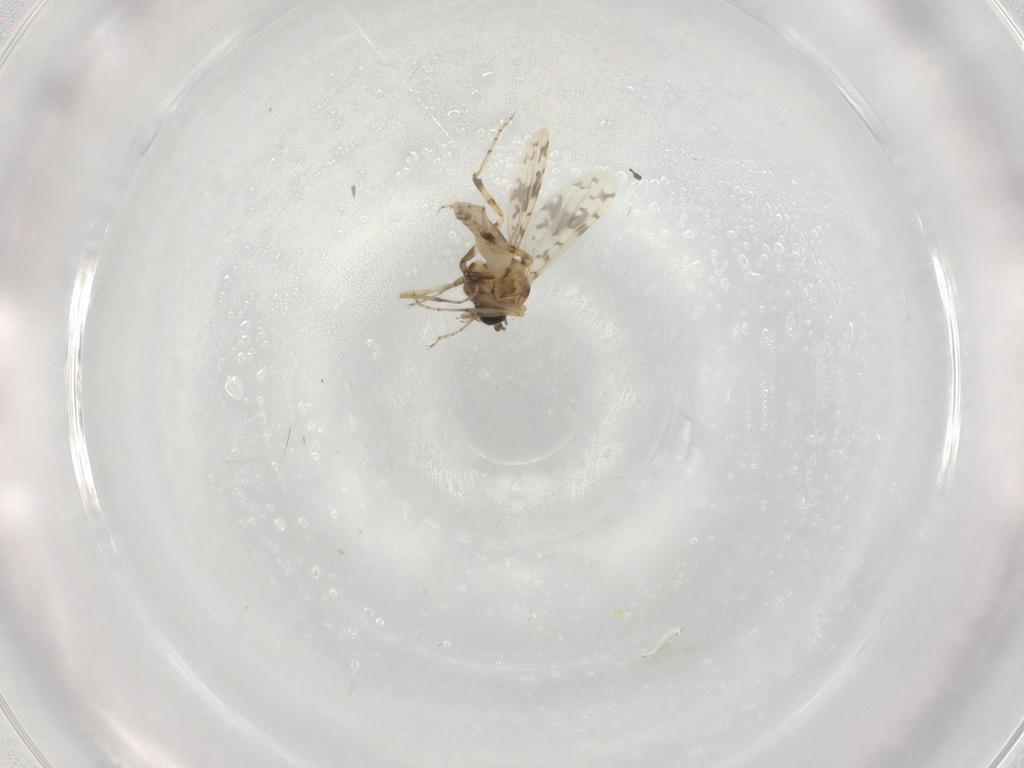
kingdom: Animalia
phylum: Arthropoda
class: Insecta
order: Diptera
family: Ceratopogonidae
